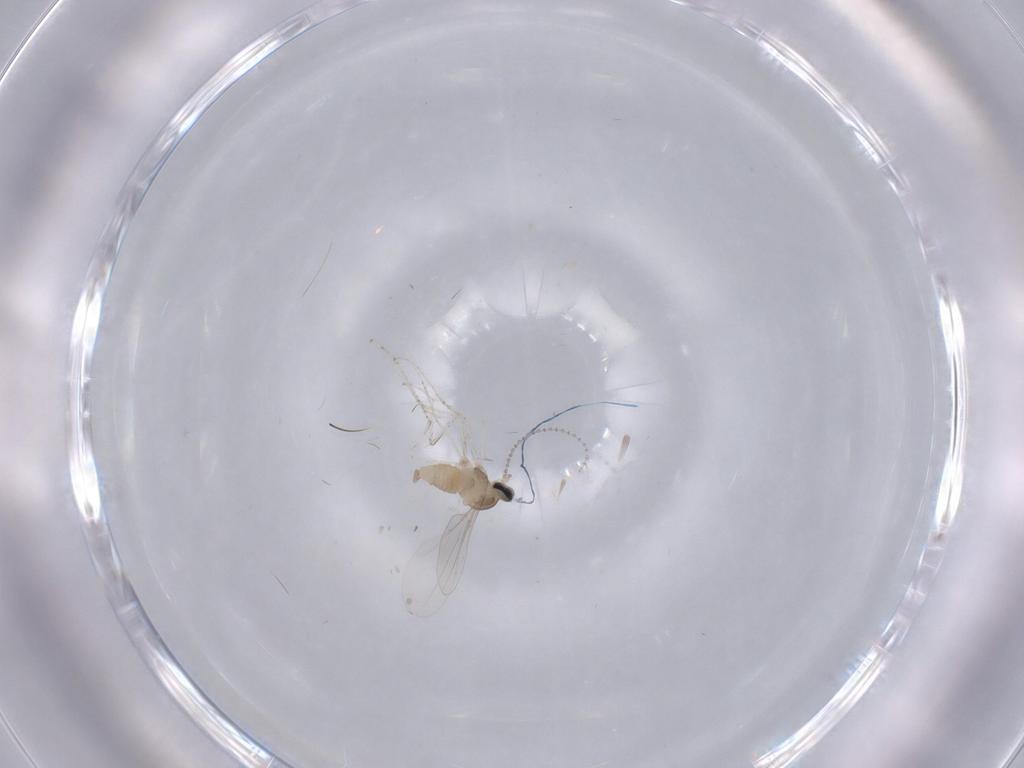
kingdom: Animalia
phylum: Arthropoda
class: Insecta
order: Diptera
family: Cecidomyiidae
